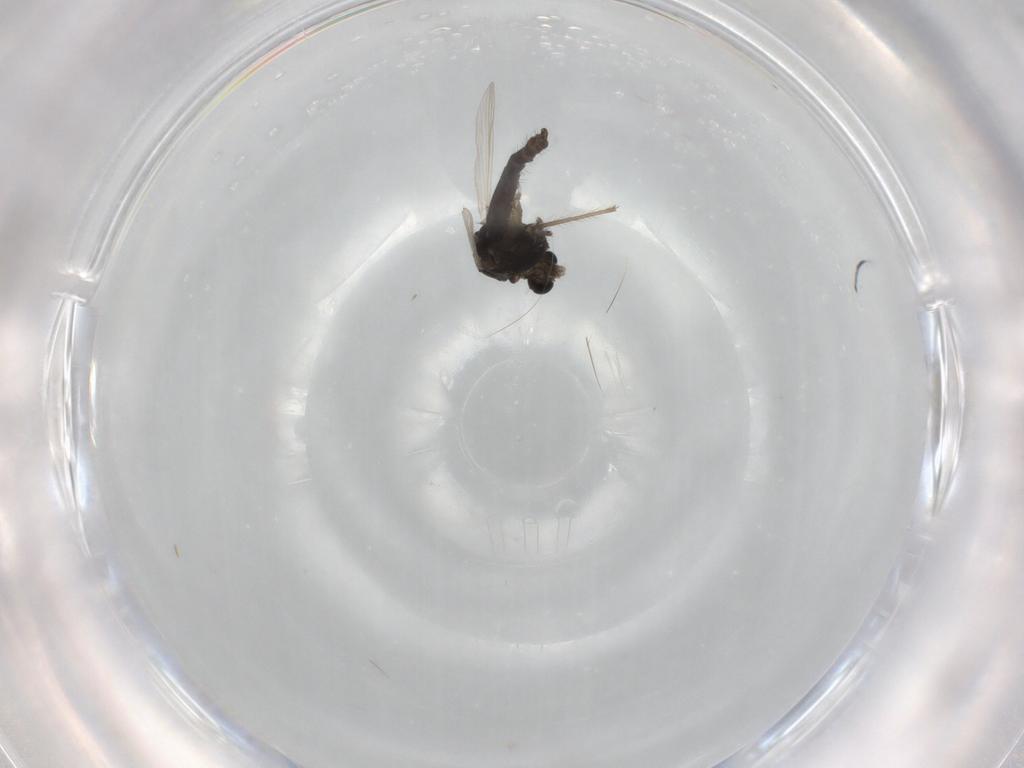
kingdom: Animalia
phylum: Arthropoda
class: Insecta
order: Diptera
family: Chironomidae
